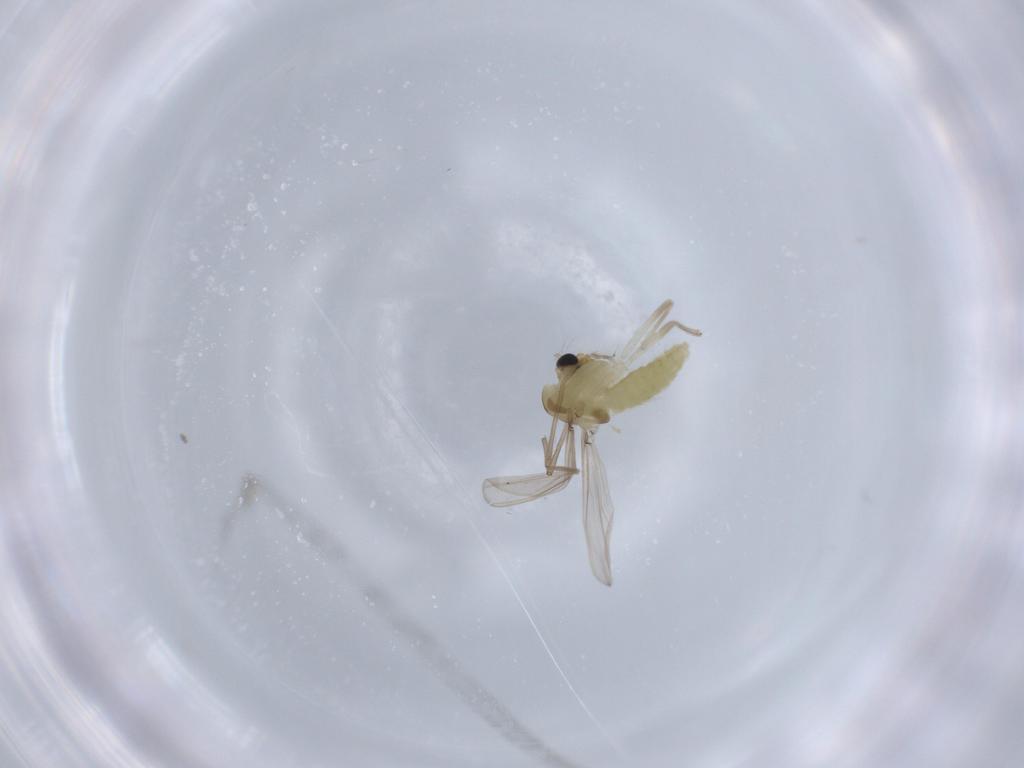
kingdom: Animalia
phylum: Arthropoda
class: Insecta
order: Diptera
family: Chironomidae
